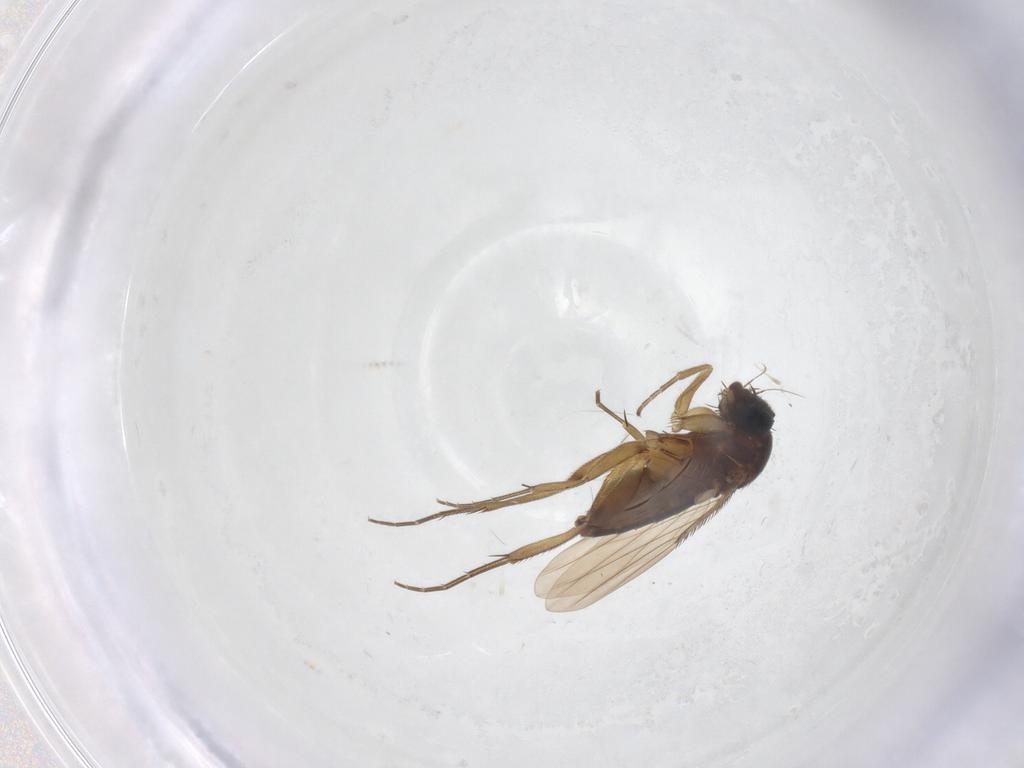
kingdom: Animalia
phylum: Arthropoda
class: Insecta
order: Diptera
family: Phoridae
